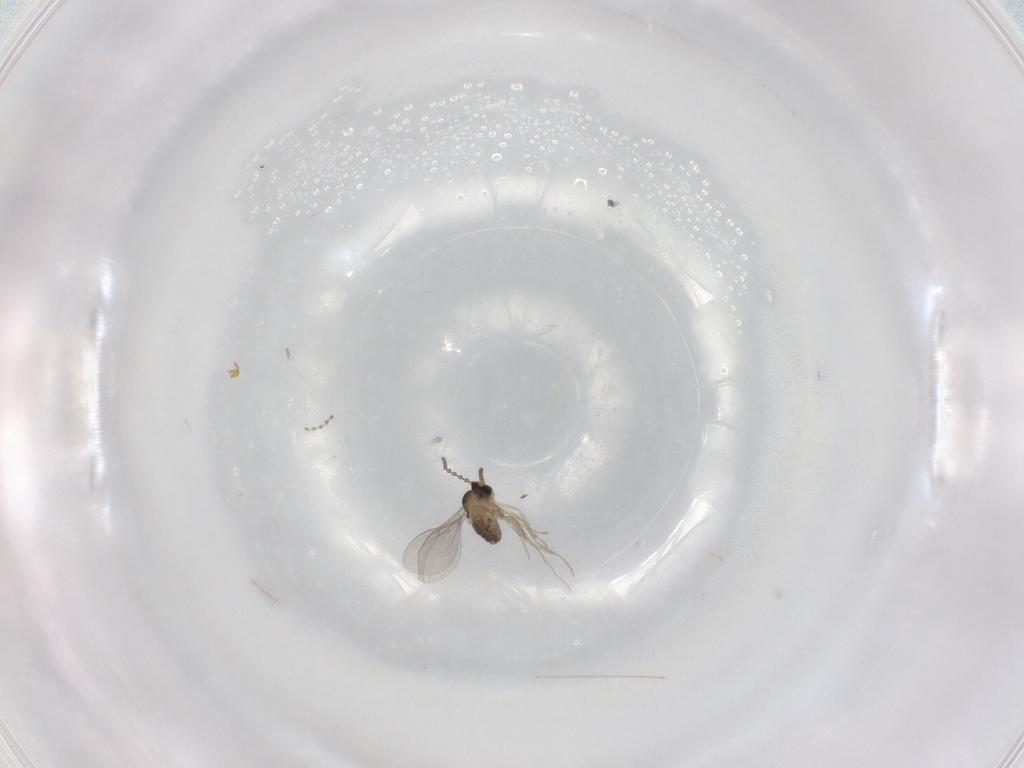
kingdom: Animalia
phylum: Arthropoda
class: Insecta
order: Diptera
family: Cecidomyiidae
